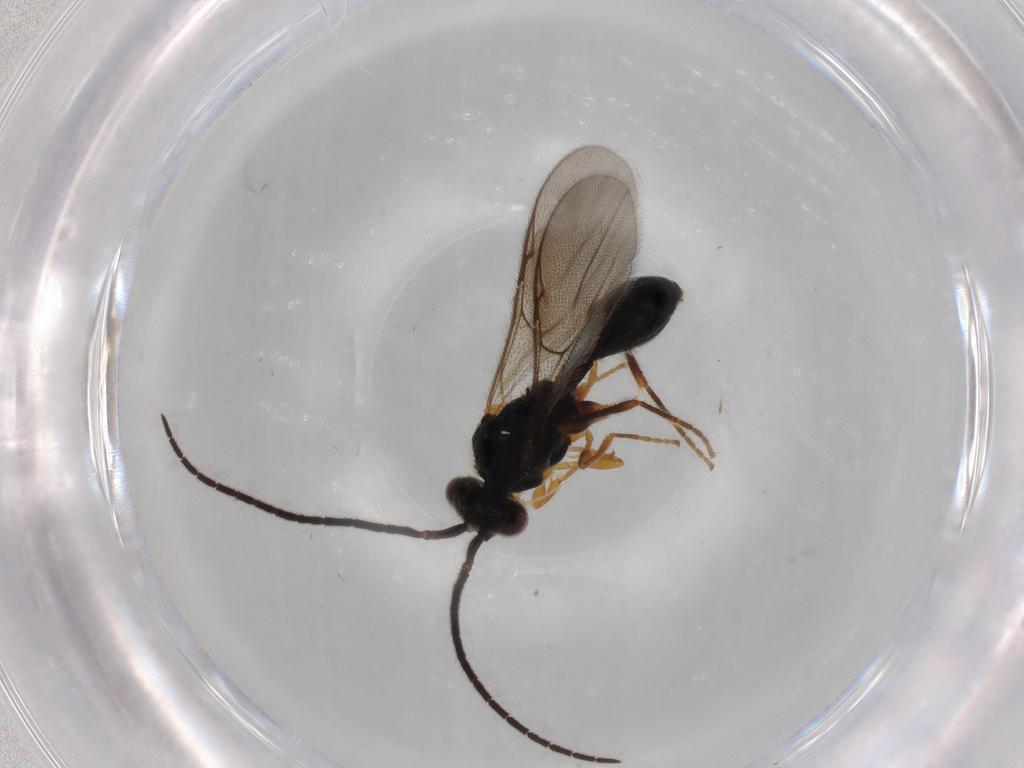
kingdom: Animalia
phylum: Arthropoda
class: Insecta
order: Hymenoptera
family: Diapriidae
